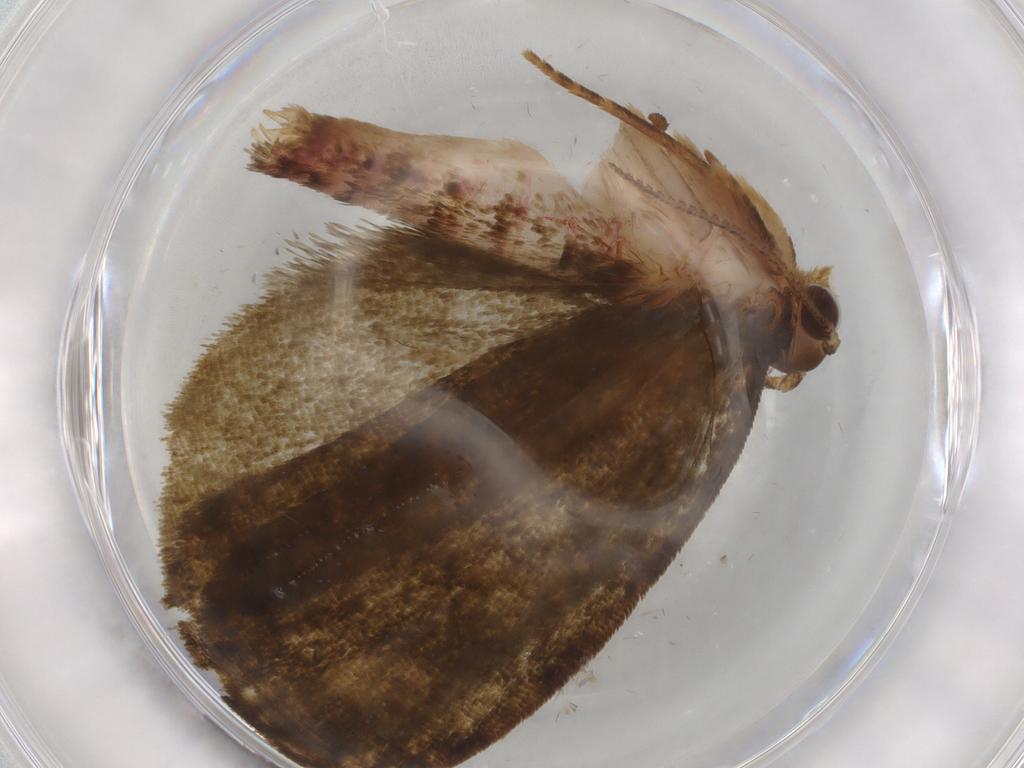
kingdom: Animalia
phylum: Arthropoda
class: Insecta
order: Lepidoptera
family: Geometridae
